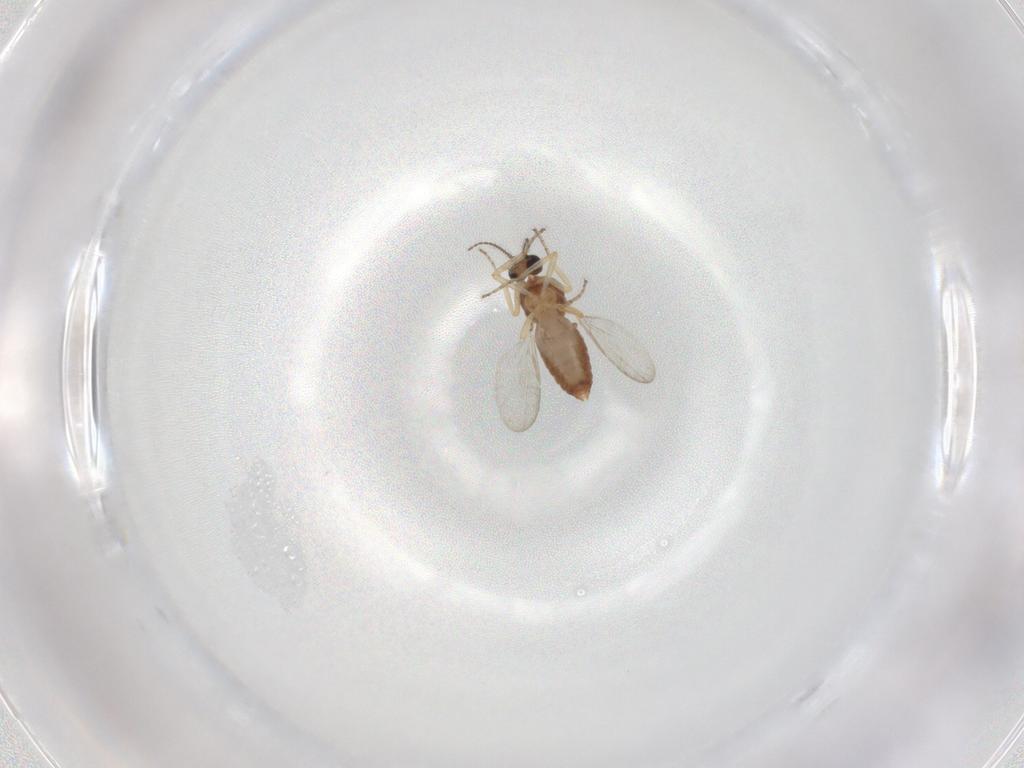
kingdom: Animalia
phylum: Arthropoda
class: Insecta
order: Diptera
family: Ceratopogonidae
